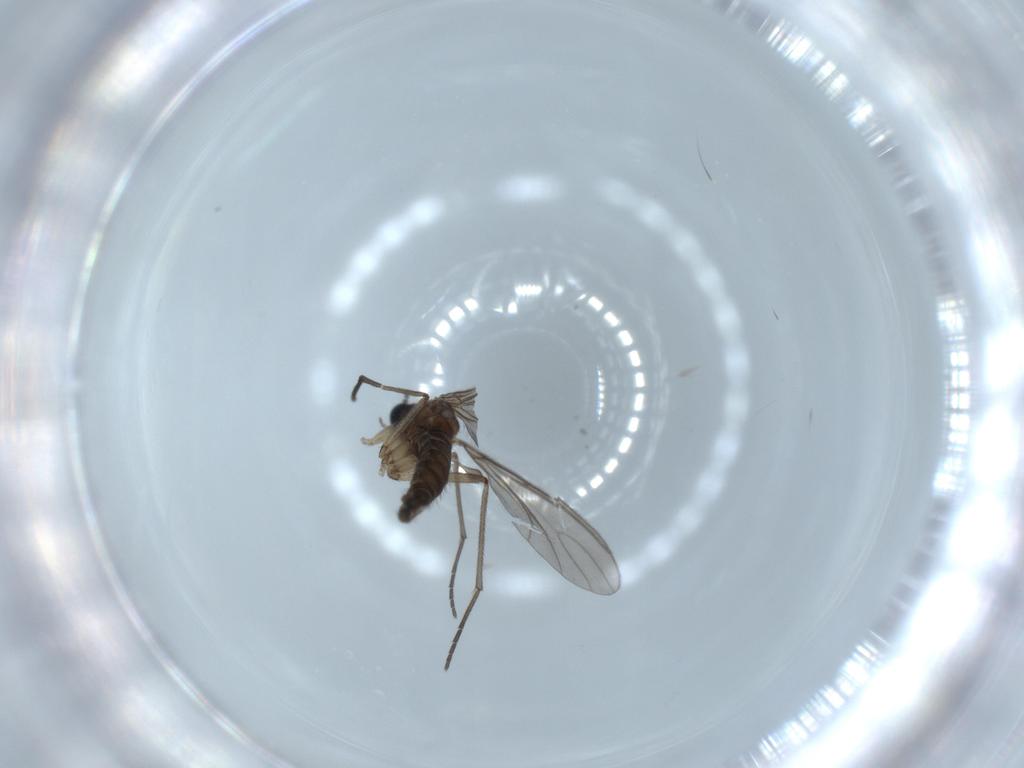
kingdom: Animalia
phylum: Arthropoda
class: Insecta
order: Diptera
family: Sciaridae
